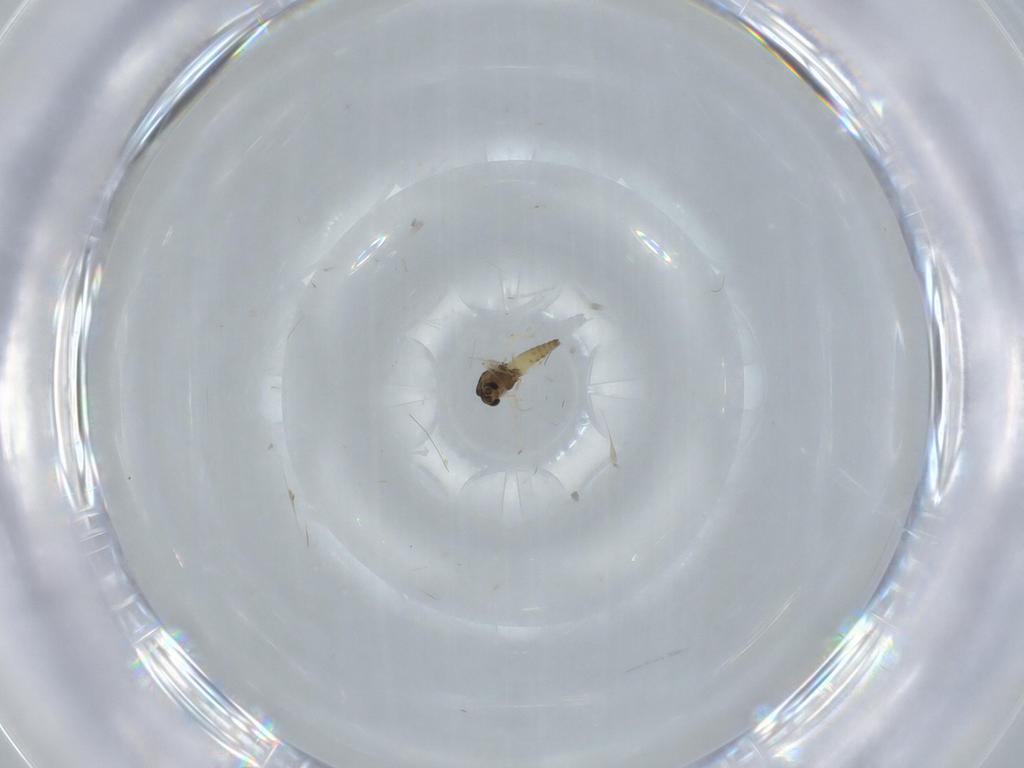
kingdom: Animalia
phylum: Arthropoda
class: Insecta
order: Diptera
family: Chironomidae
